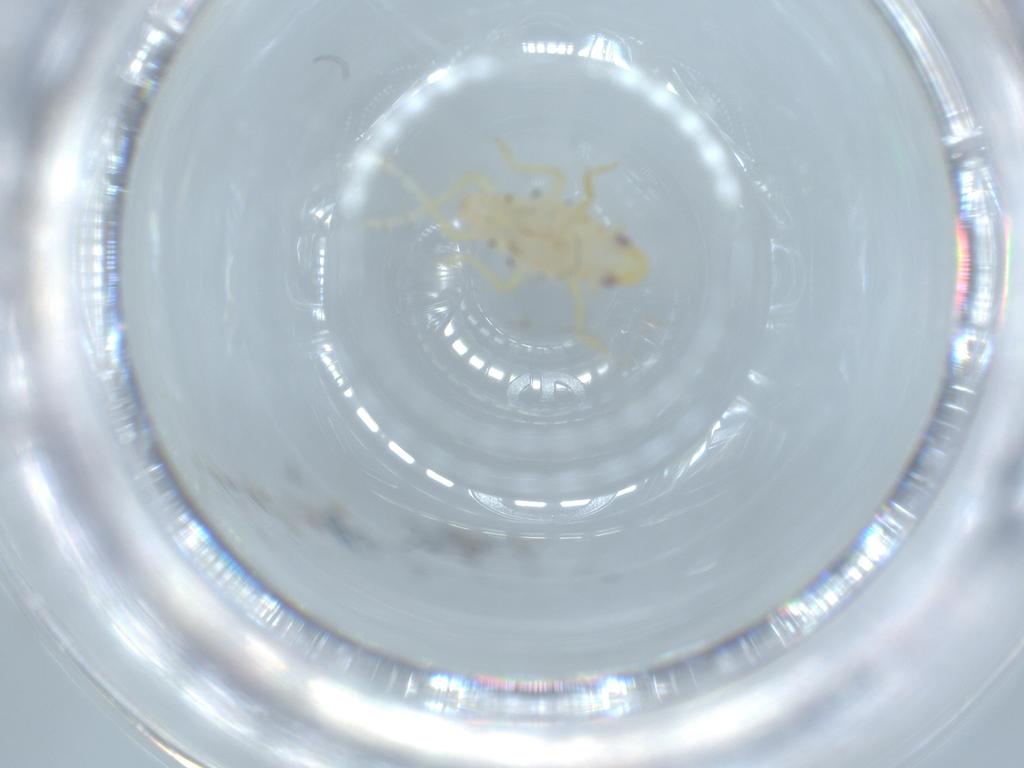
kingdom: Animalia
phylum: Arthropoda
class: Insecta
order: Hemiptera
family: Tropiduchidae
